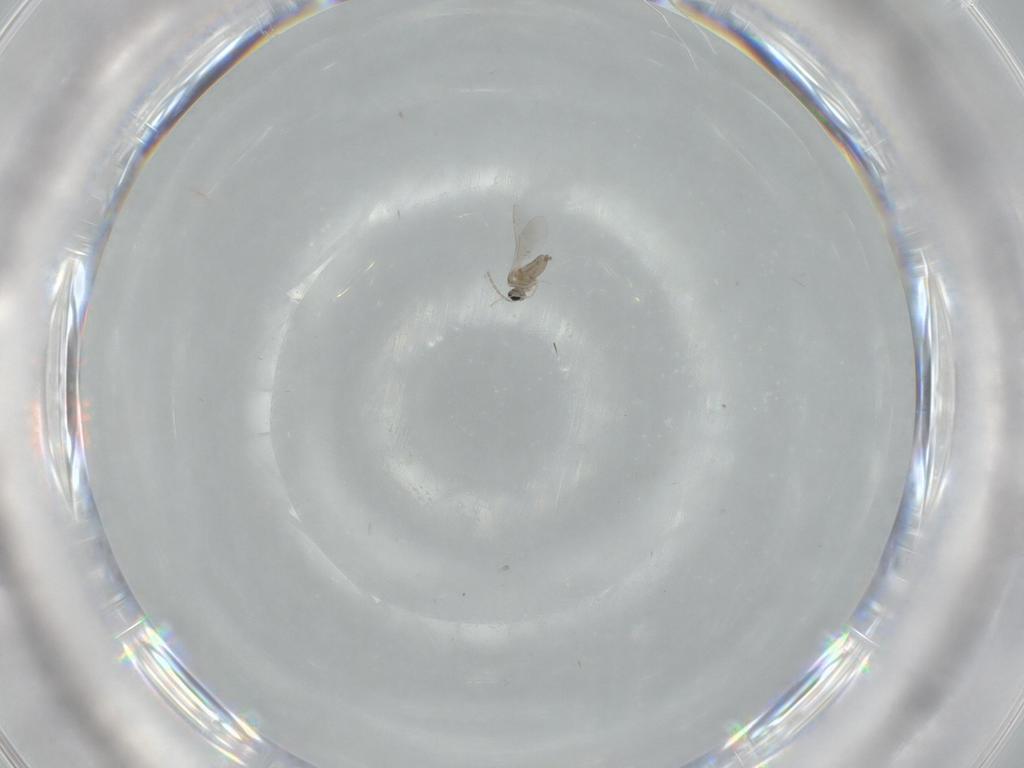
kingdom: Animalia
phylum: Arthropoda
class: Insecta
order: Diptera
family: Cecidomyiidae
